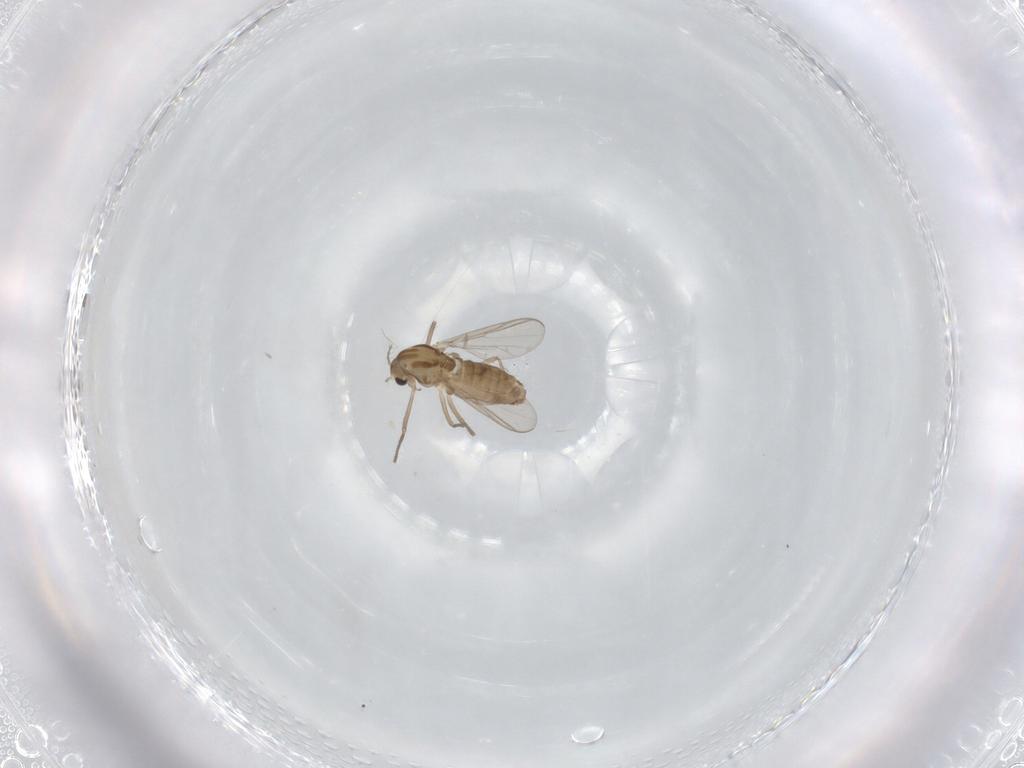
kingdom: Animalia
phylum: Arthropoda
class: Insecta
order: Diptera
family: Chironomidae
